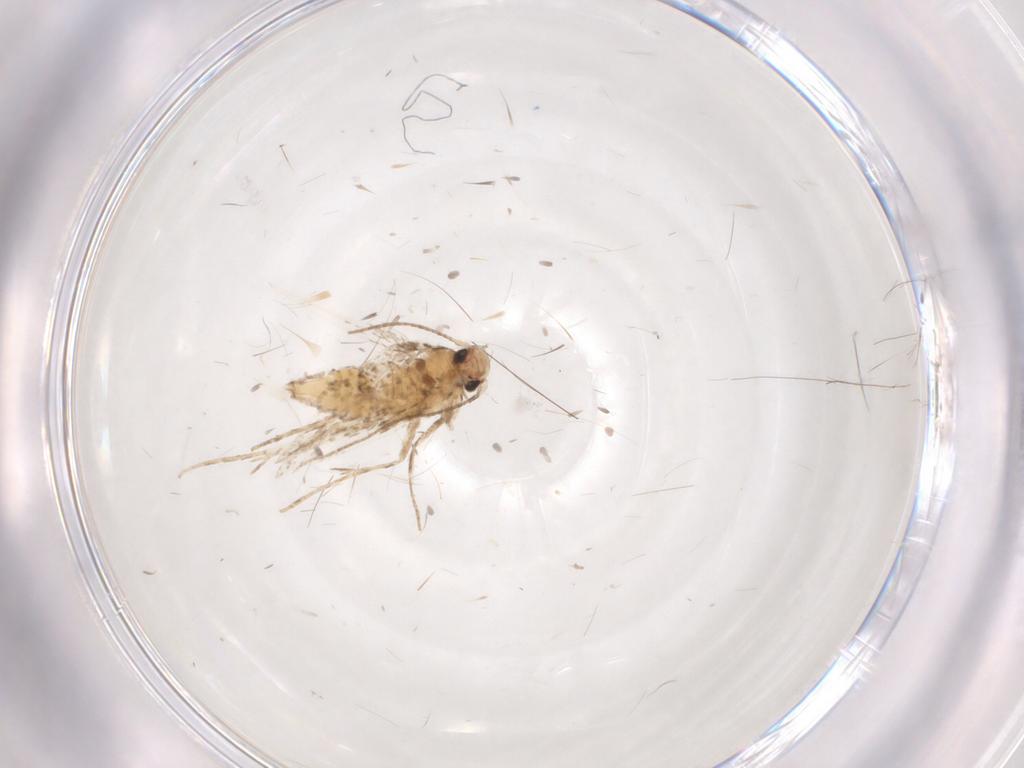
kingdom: Animalia
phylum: Arthropoda
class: Insecta
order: Lepidoptera
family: Gracillariidae
